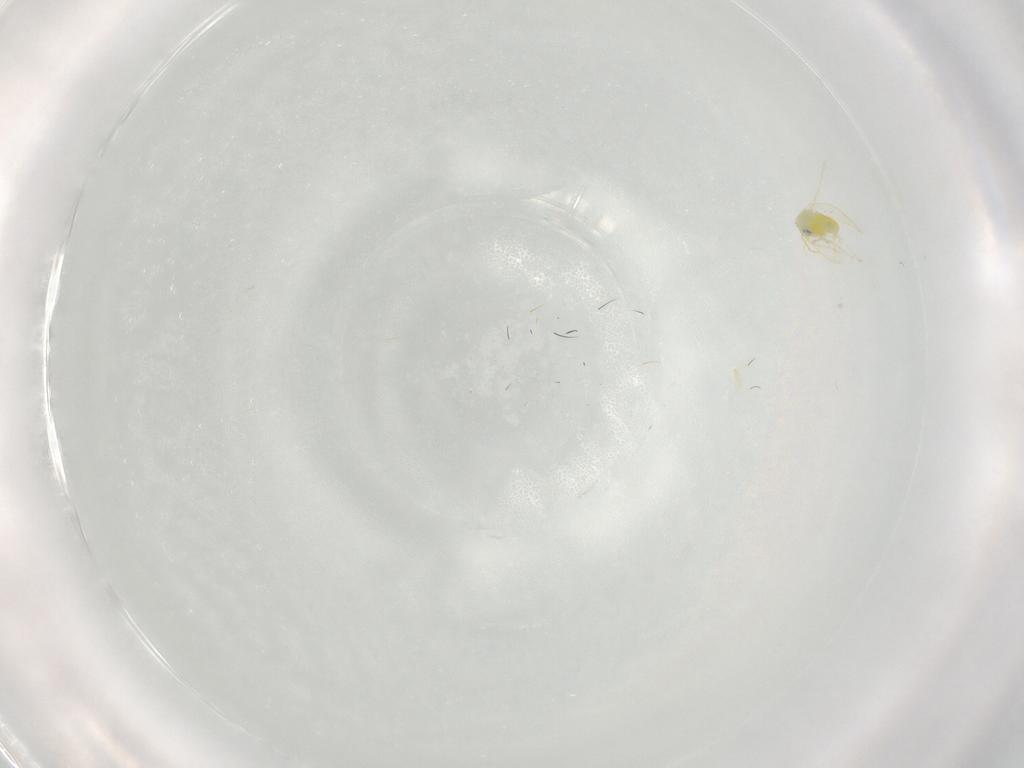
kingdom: Animalia
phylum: Arthropoda
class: Insecta
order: Hemiptera
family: Aleyrodidae
